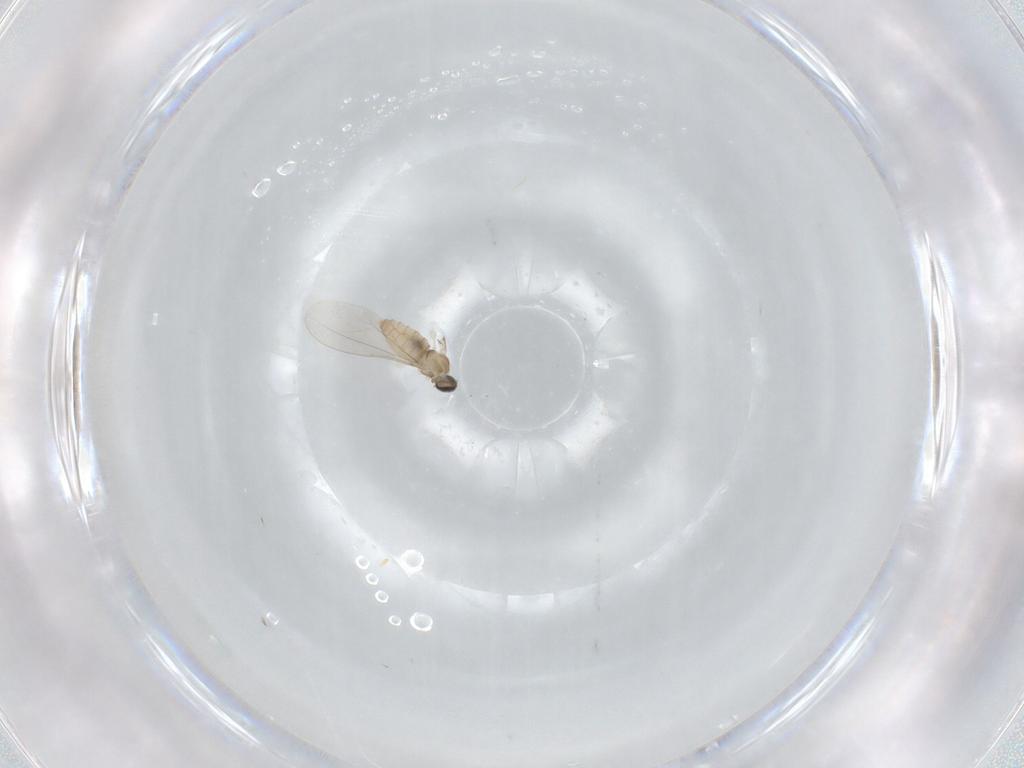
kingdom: Animalia
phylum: Arthropoda
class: Insecta
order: Diptera
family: Cecidomyiidae
